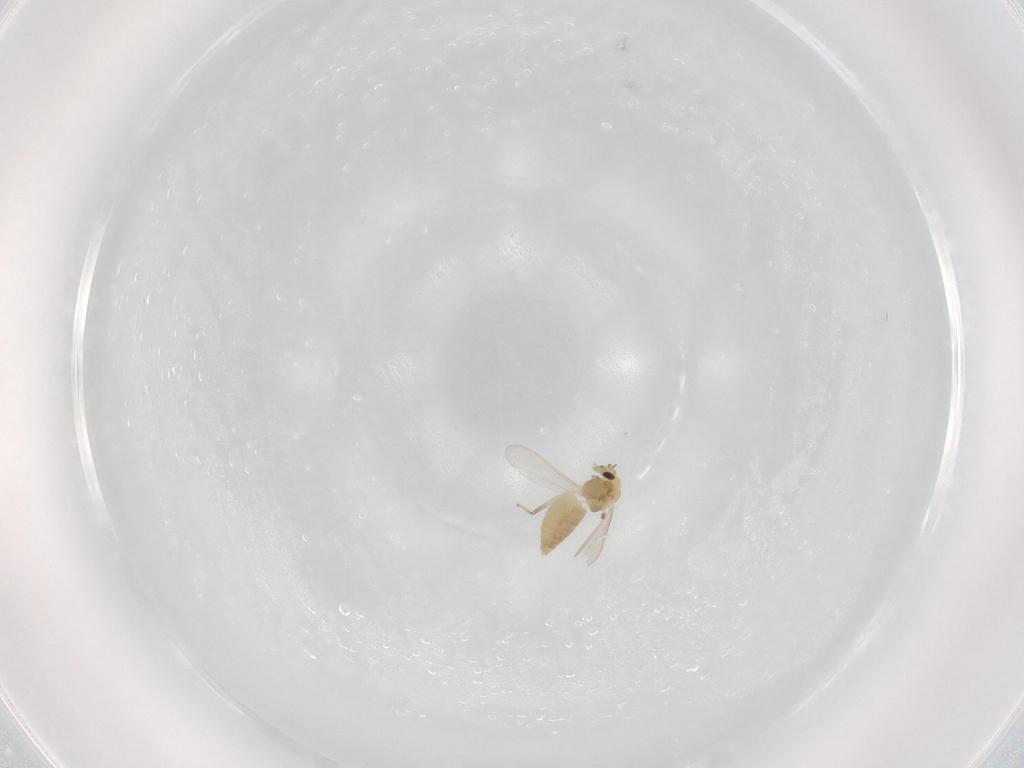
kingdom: Animalia
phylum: Arthropoda
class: Insecta
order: Diptera
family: Chironomidae
